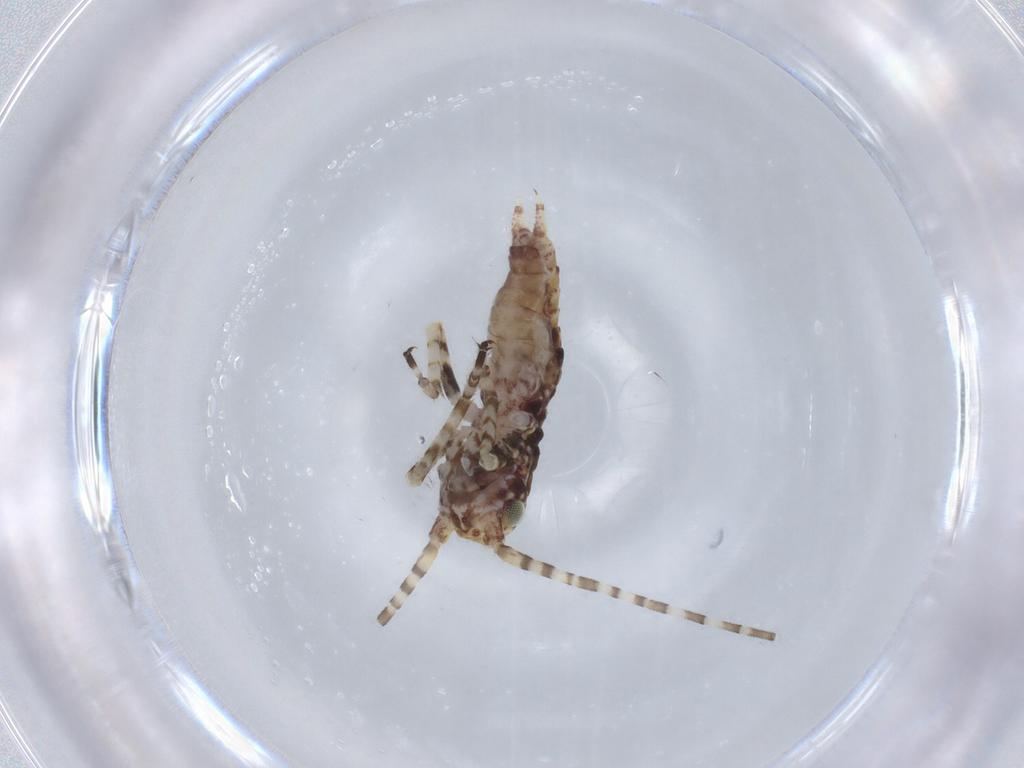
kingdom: Animalia
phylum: Arthropoda
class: Insecta
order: Orthoptera
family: Gryllidae
